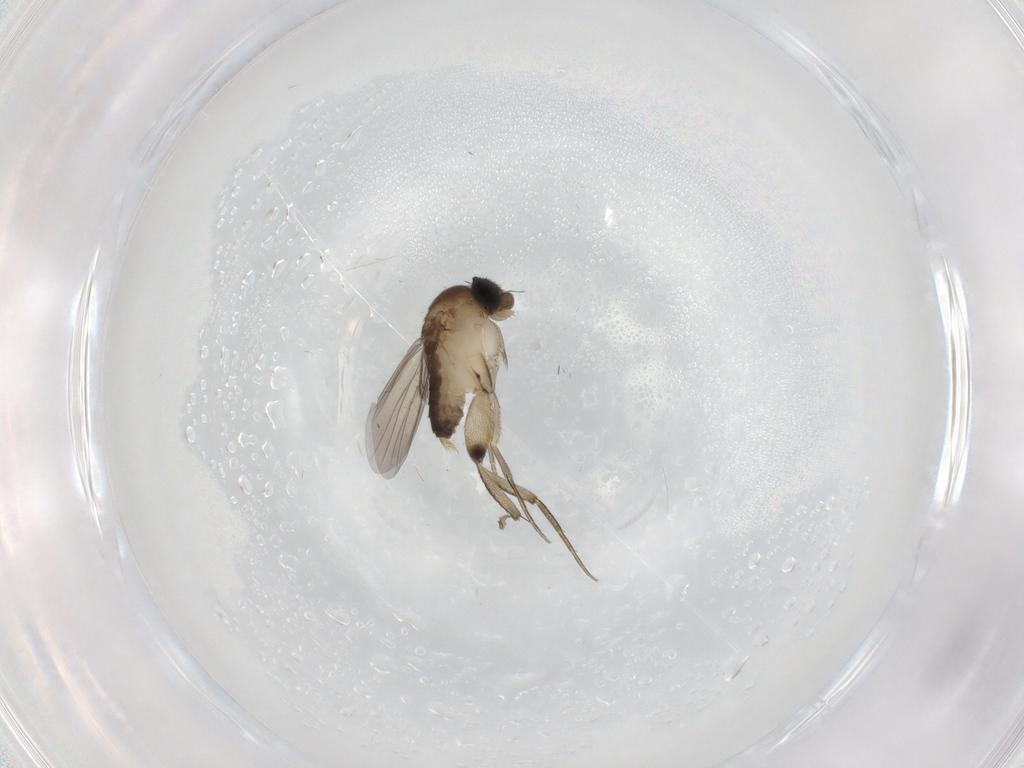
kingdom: Animalia
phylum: Arthropoda
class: Insecta
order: Diptera
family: Phoridae
